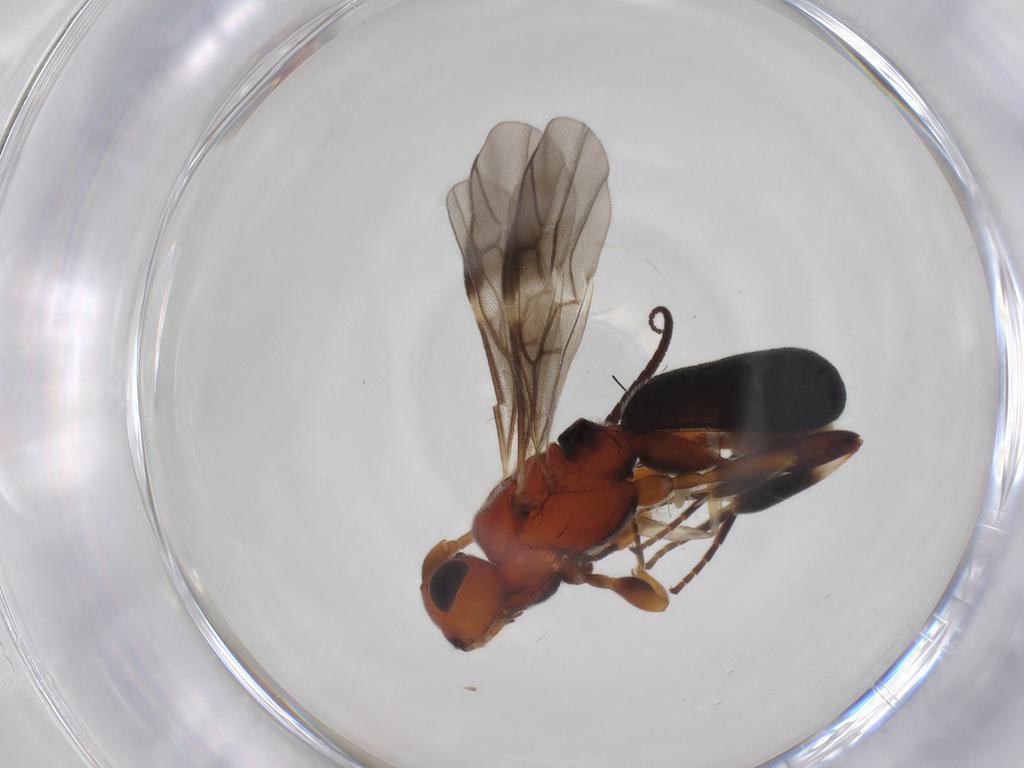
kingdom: Animalia
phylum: Arthropoda
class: Insecta
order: Hymenoptera
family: Braconidae
